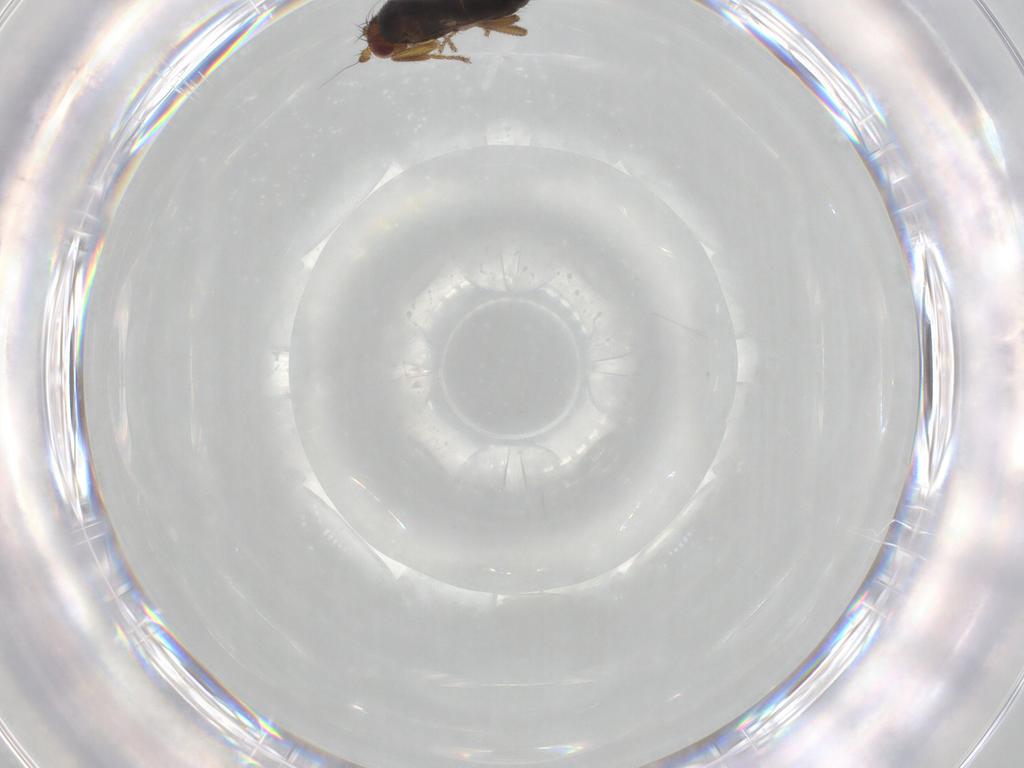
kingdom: Animalia
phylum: Arthropoda
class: Insecta
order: Diptera
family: Sphaeroceridae
